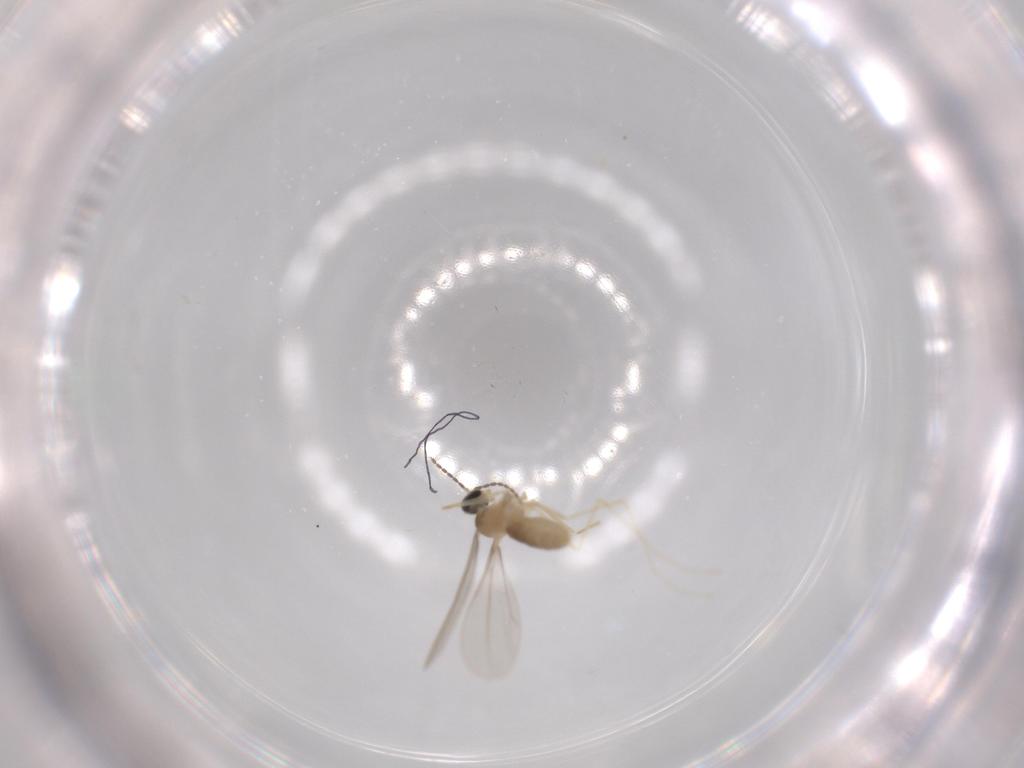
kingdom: Animalia
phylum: Arthropoda
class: Insecta
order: Diptera
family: Cecidomyiidae
